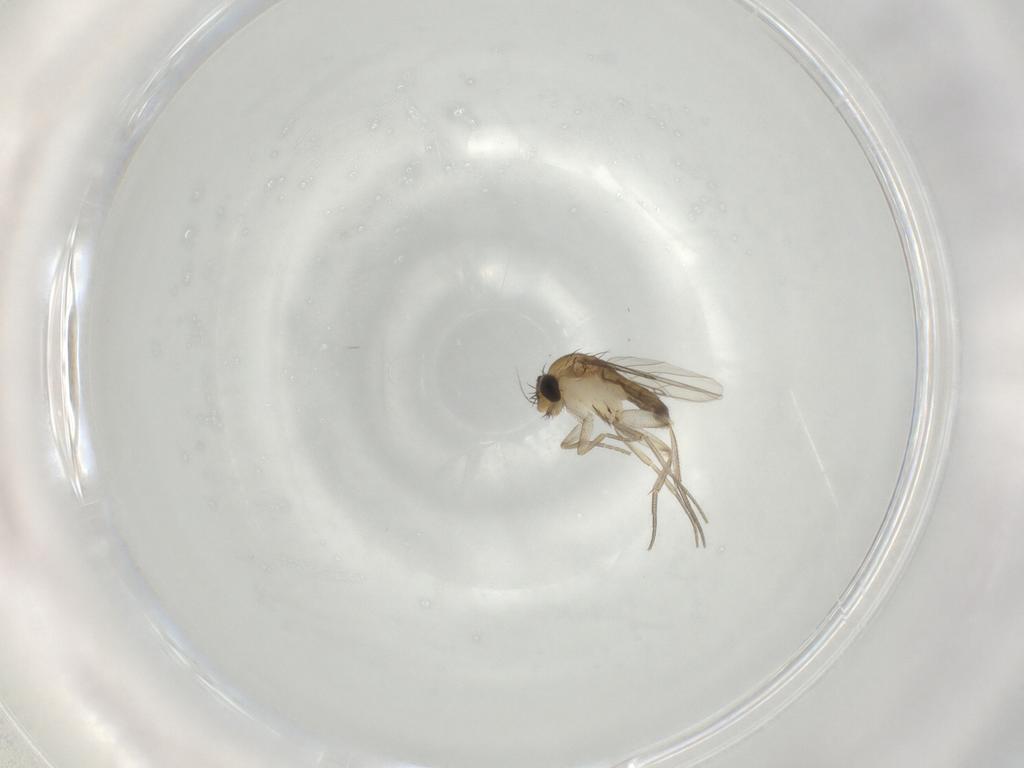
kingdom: Animalia
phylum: Arthropoda
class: Insecta
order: Diptera
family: Phoridae
